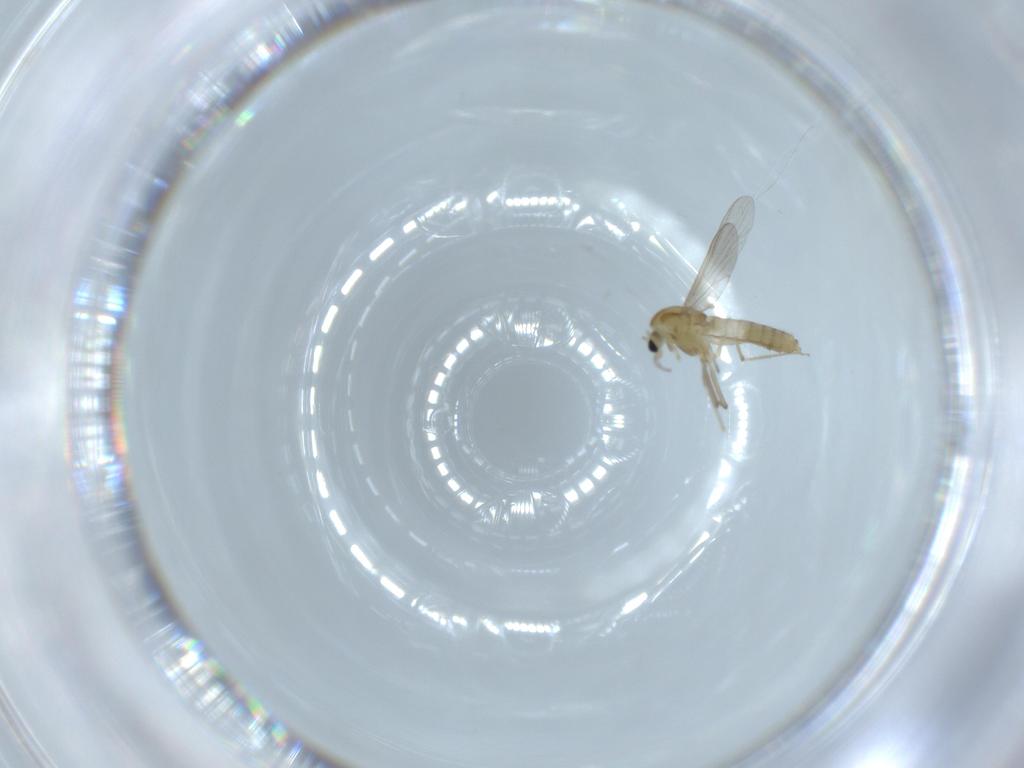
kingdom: Animalia
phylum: Arthropoda
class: Insecta
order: Diptera
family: Chironomidae
